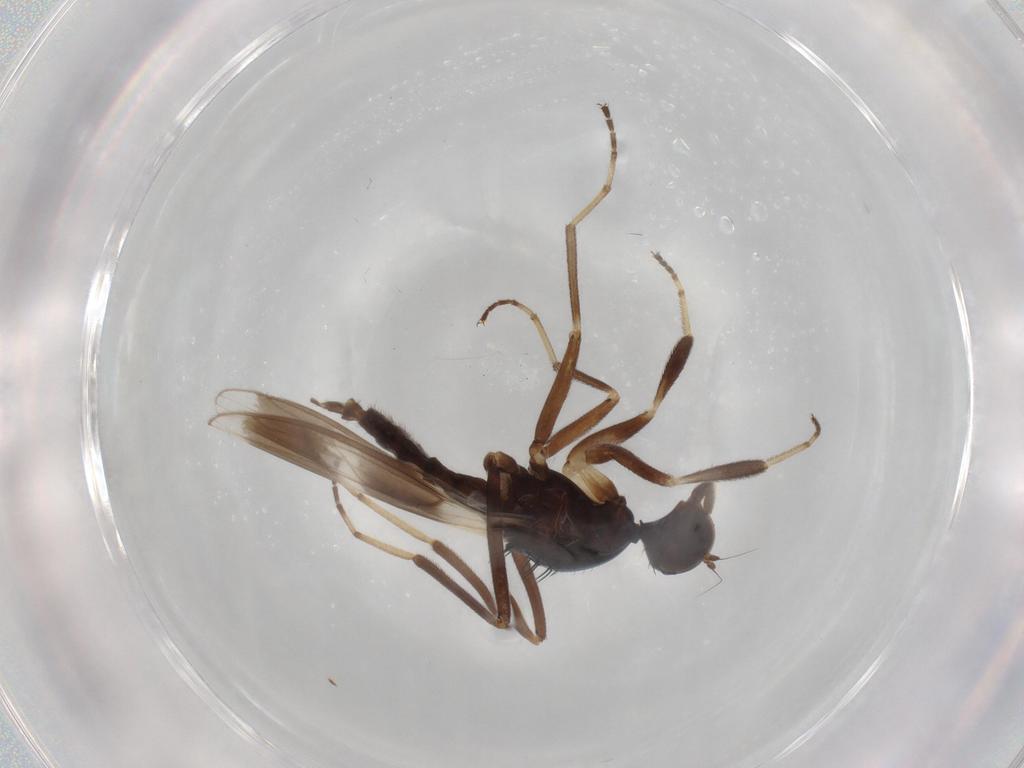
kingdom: Animalia
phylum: Arthropoda
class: Insecta
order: Diptera
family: Hybotidae
